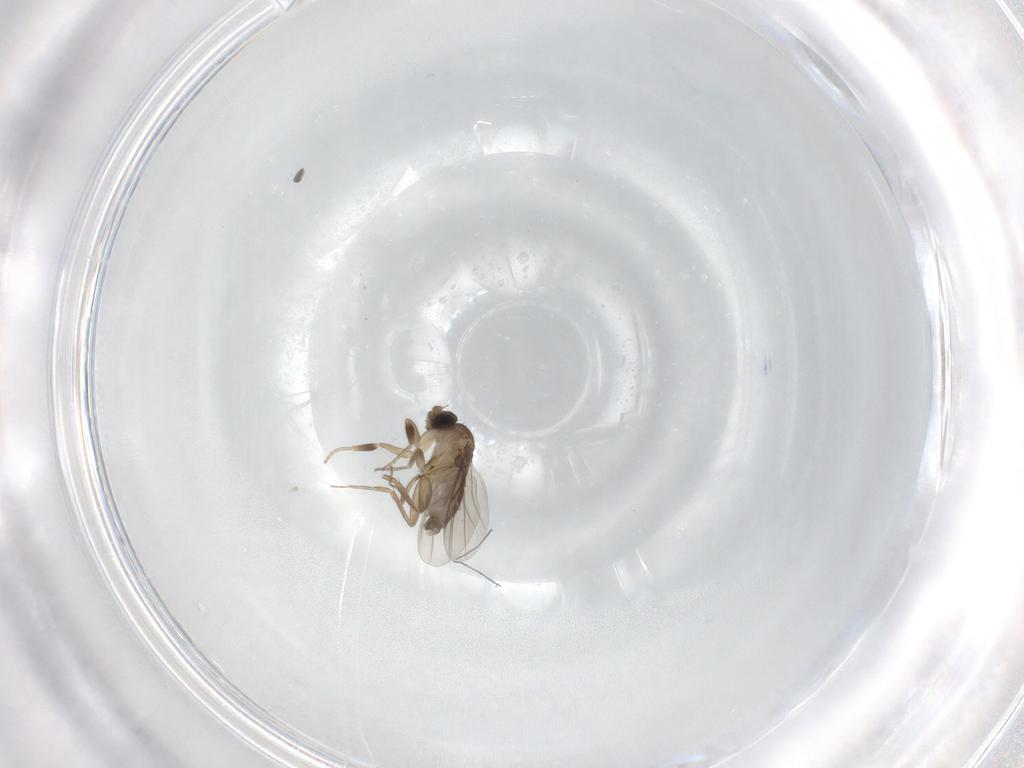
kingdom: Animalia
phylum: Arthropoda
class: Insecta
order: Diptera
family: Phoridae
